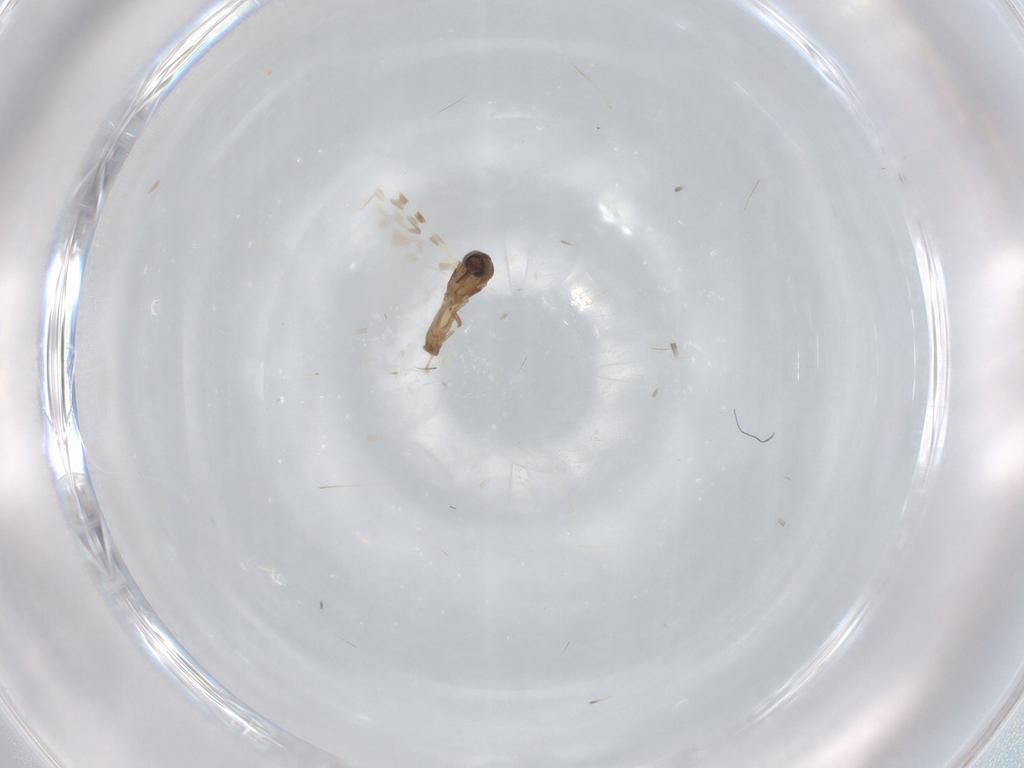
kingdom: Animalia
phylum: Arthropoda
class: Insecta
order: Diptera
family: Ceratopogonidae
